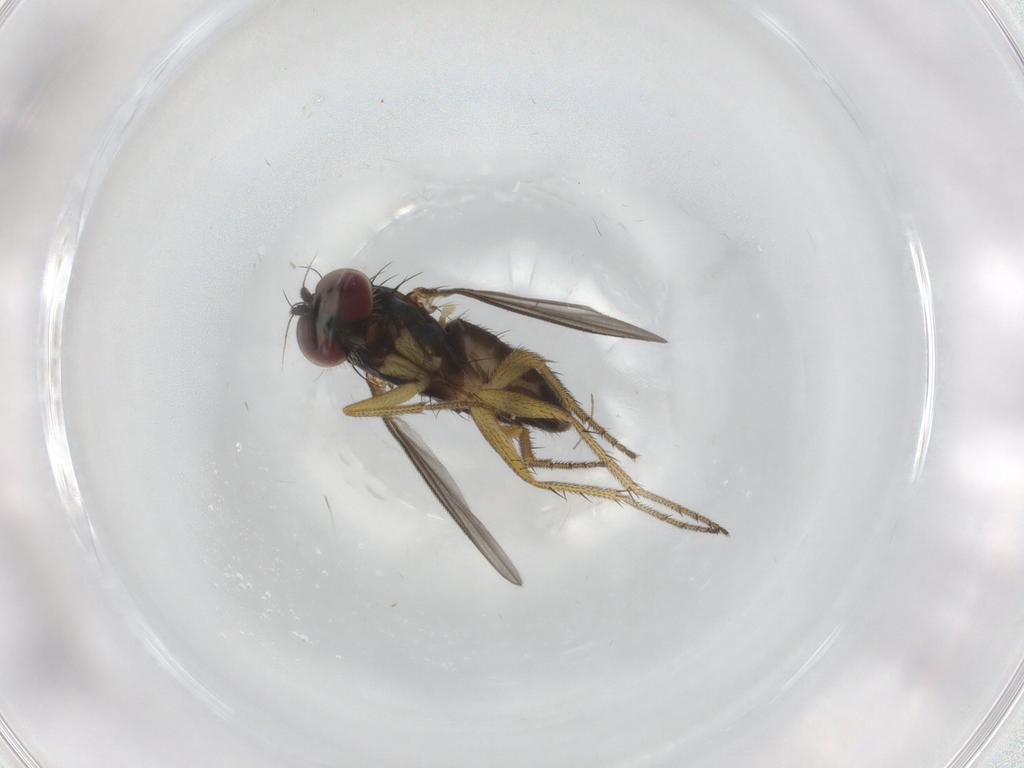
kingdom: Animalia
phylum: Arthropoda
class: Insecta
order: Diptera
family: Dolichopodidae
